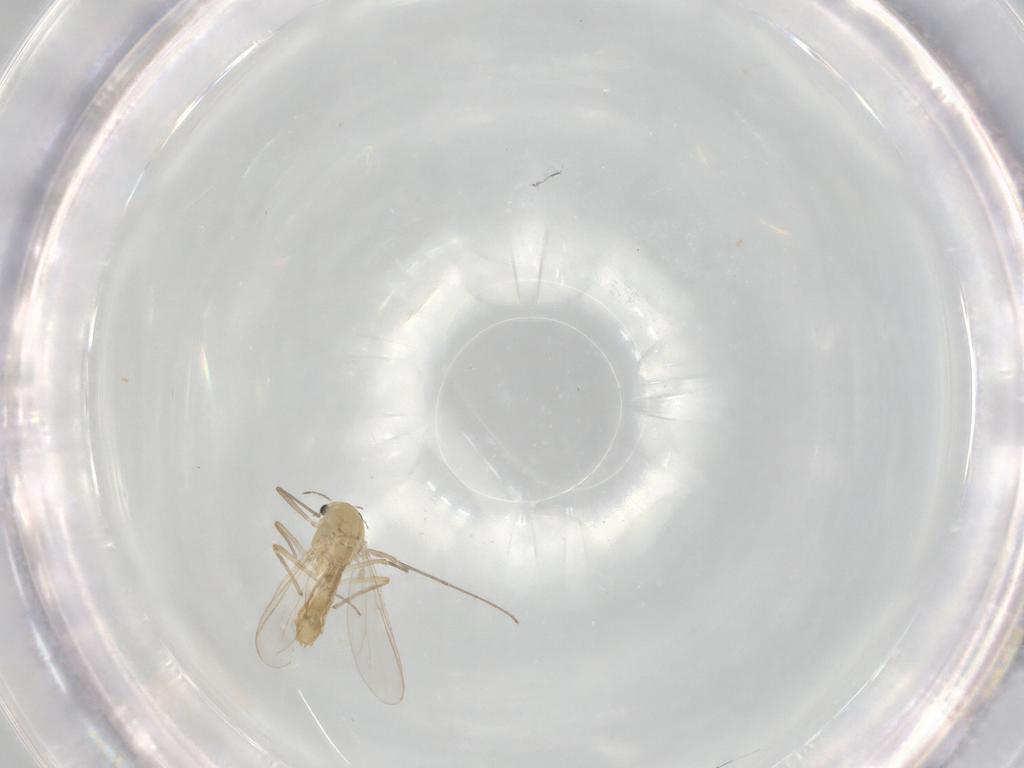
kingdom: Animalia
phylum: Arthropoda
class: Insecta
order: Diptera
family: Chironomidae
